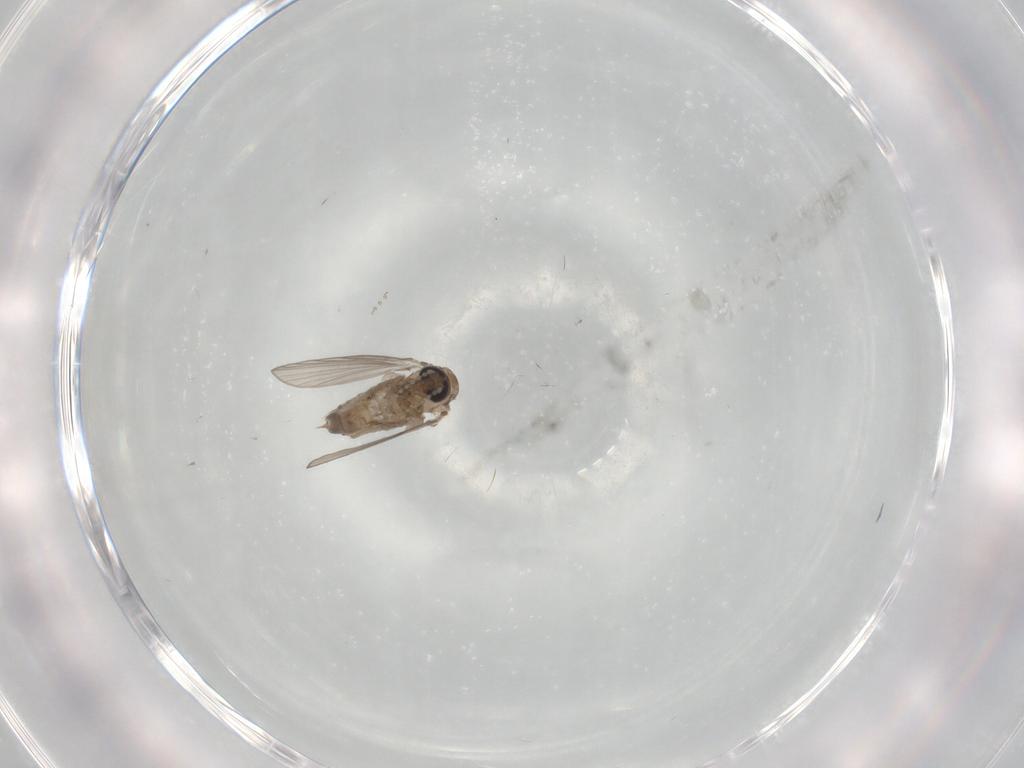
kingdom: Animalia
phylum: Arthropoda
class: Insecta
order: Diptera
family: Psychodidae
